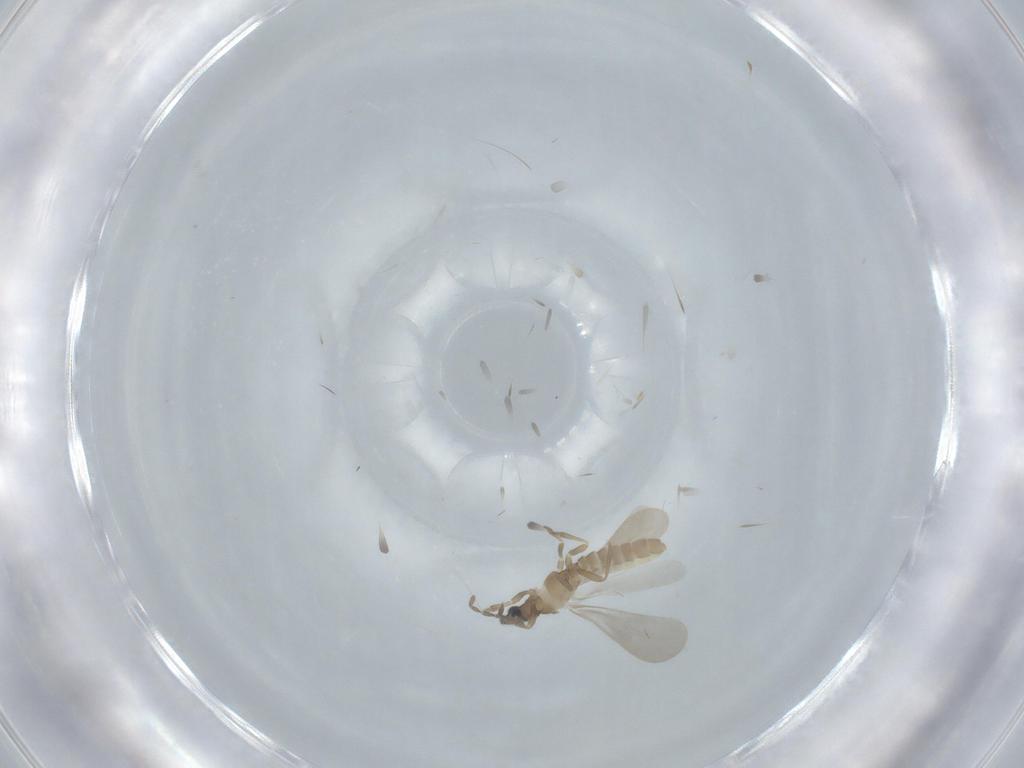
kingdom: Animalia
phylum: Arthropoda
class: Insecta
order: Hemiptera
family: Enicocephalidae
